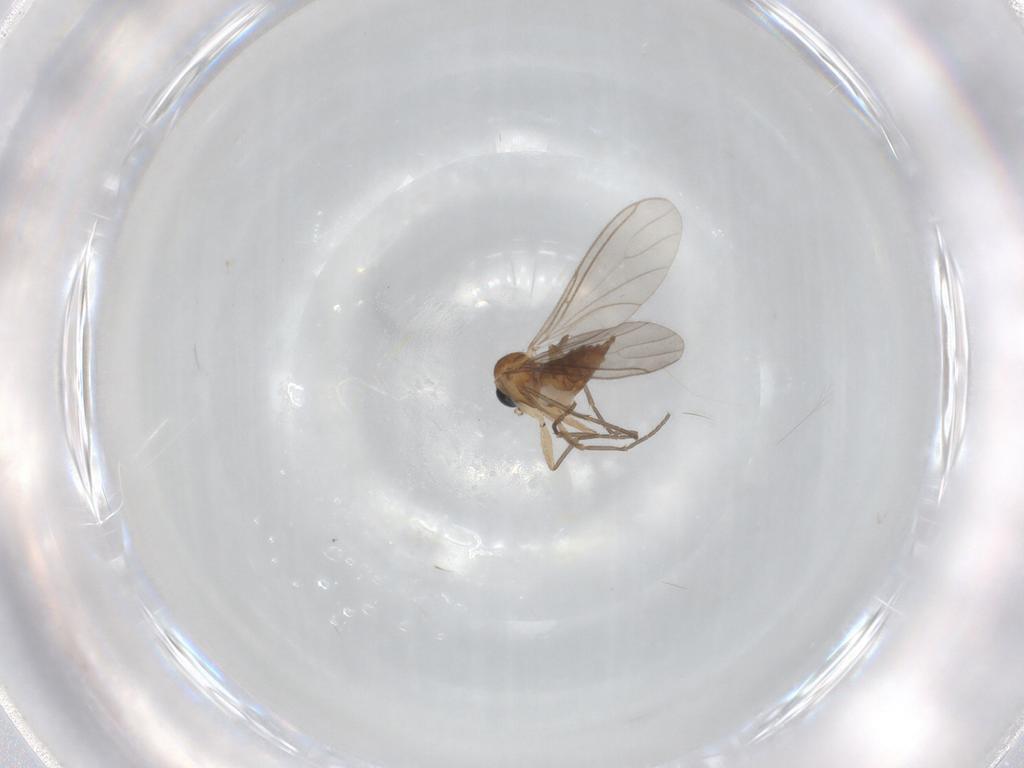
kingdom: Animalia
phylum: Arthropoda
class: Insecta
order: Diptera
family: Sciaridae
